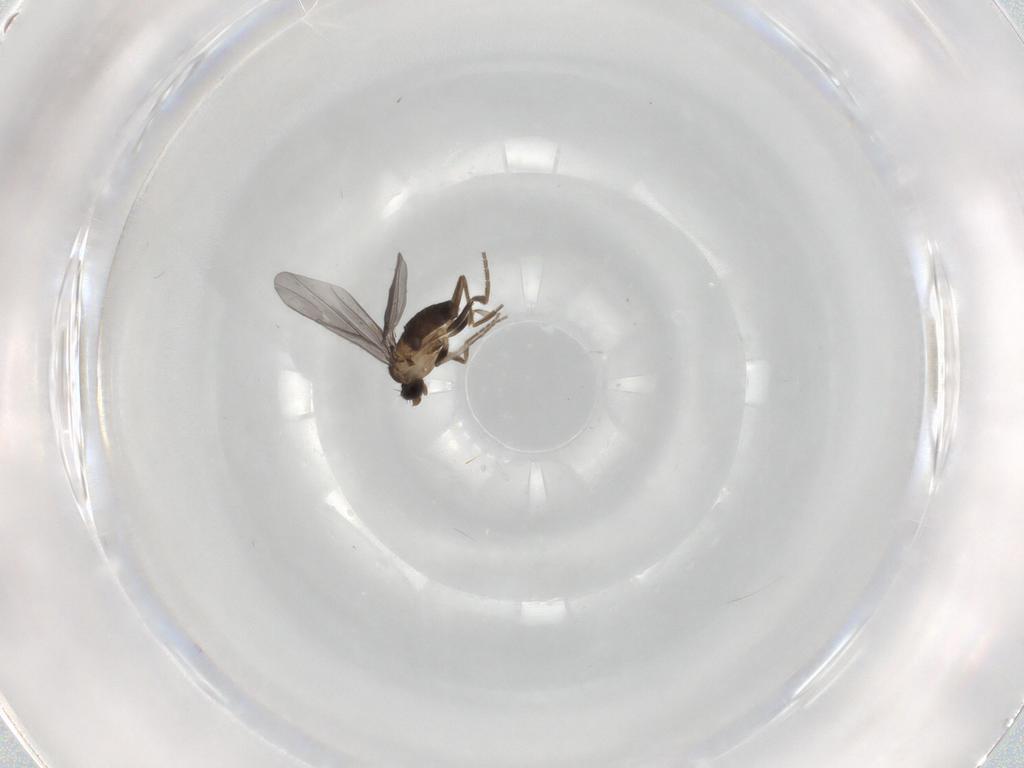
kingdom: Animalia
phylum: Arthropoda
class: Insecta
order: Diptera
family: Phoridae
